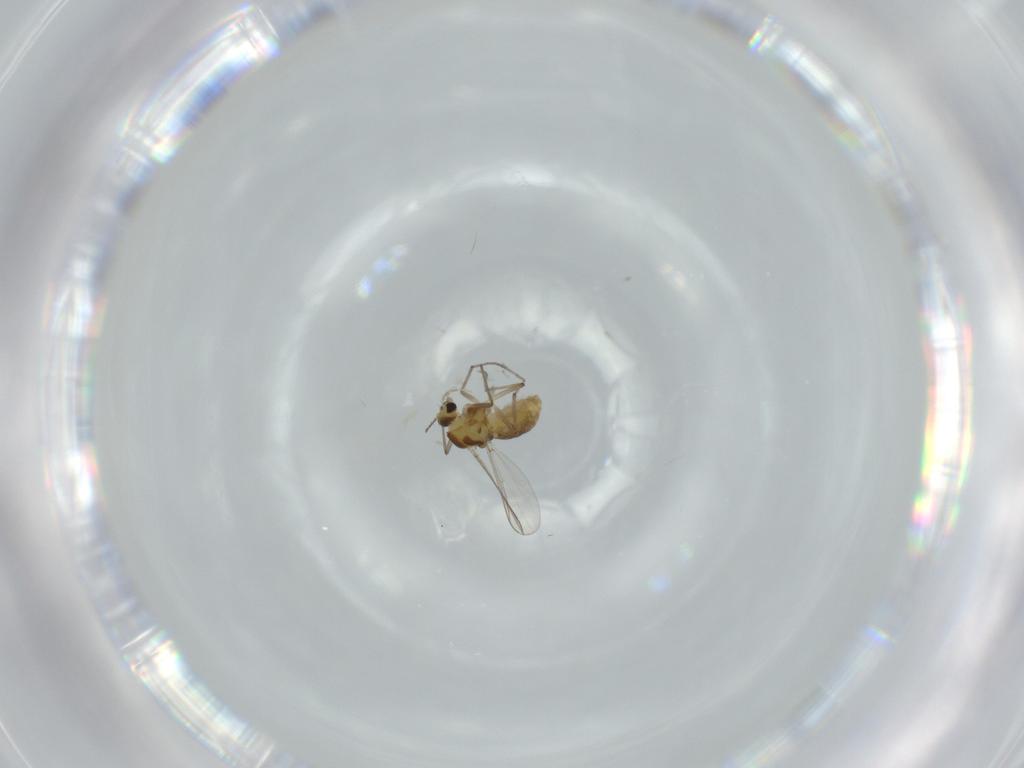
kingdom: Animalia
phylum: Arthropoda
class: Insecta
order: Diptera
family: Chironomidae
